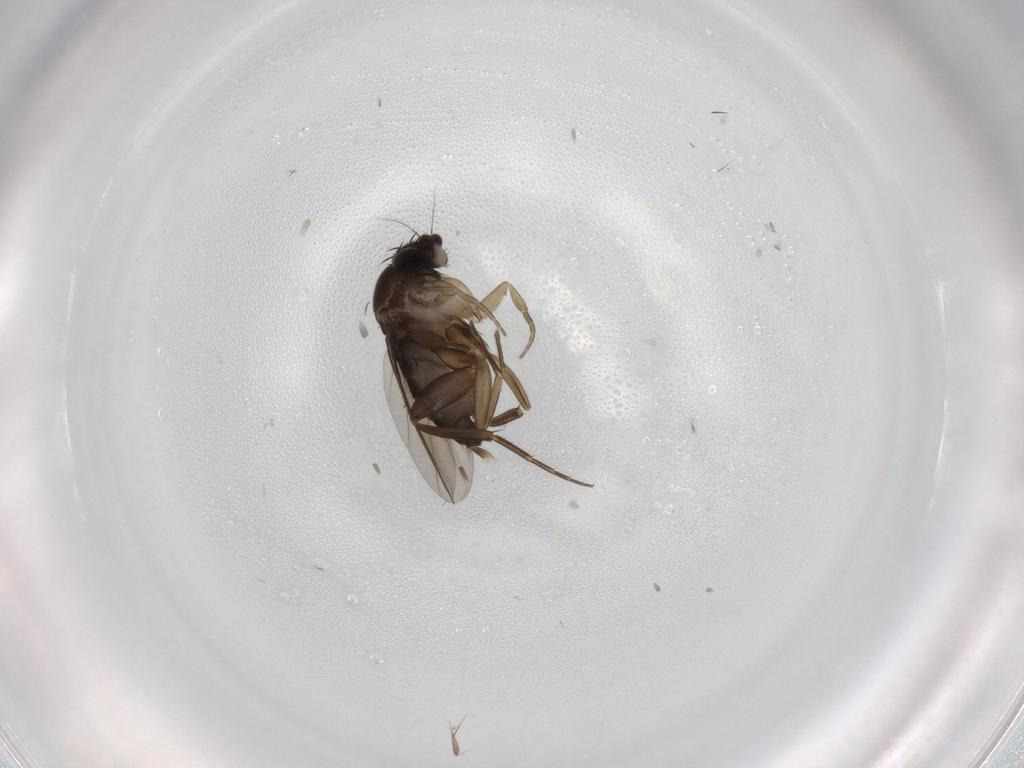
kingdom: Animalia
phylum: Arthropoda
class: Insecta
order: Diptera
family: Phoridae
